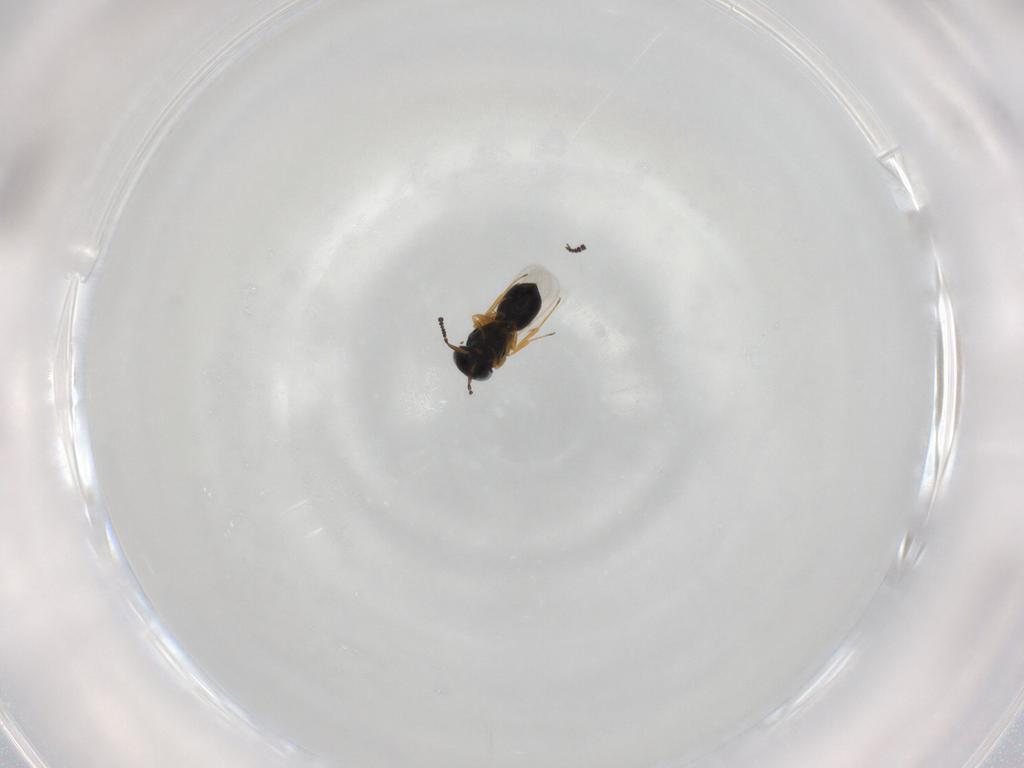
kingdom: Animalia
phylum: Arthropoda
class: Insecta
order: Hymenoptera
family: Scelionidae
